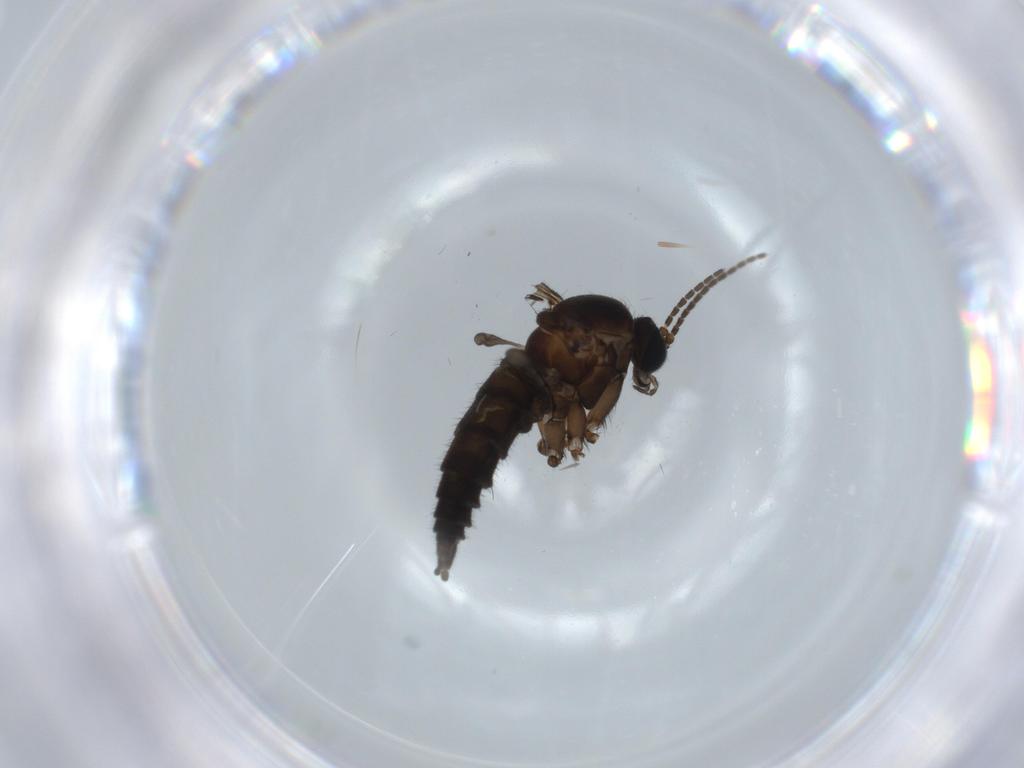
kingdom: Animalia
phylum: Arthropoda
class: Insecta
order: Diptera
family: Sciaridae
